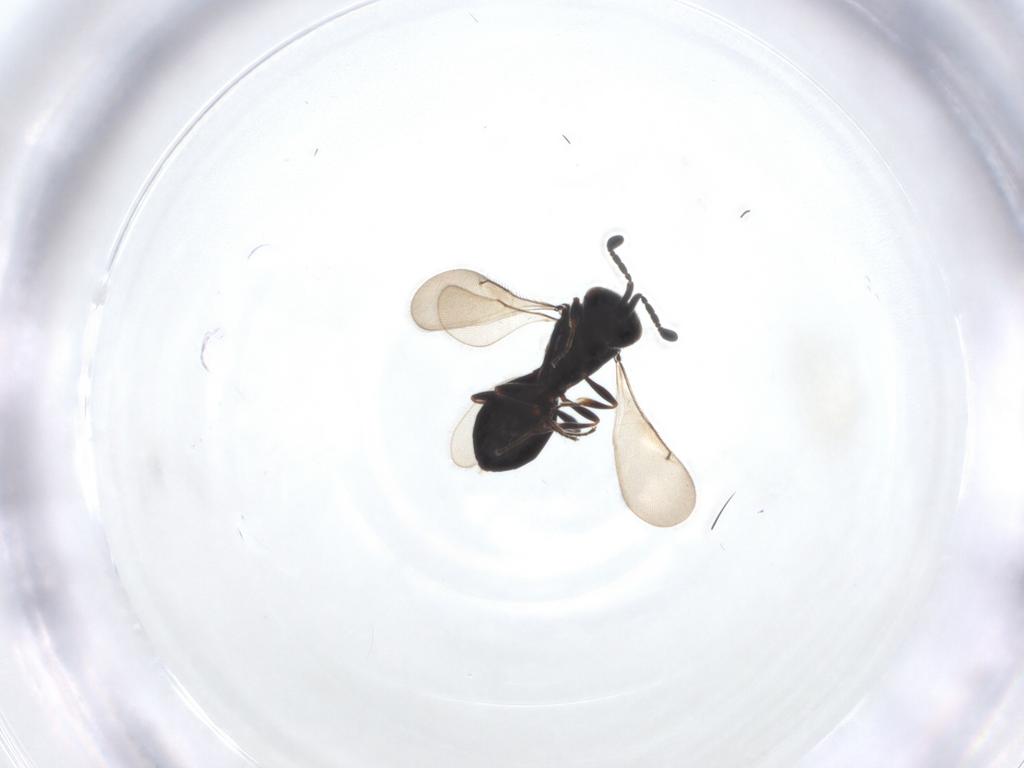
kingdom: Animalia
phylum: Arthropoda
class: Insecta
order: Hymenoptera
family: Scelionidae
